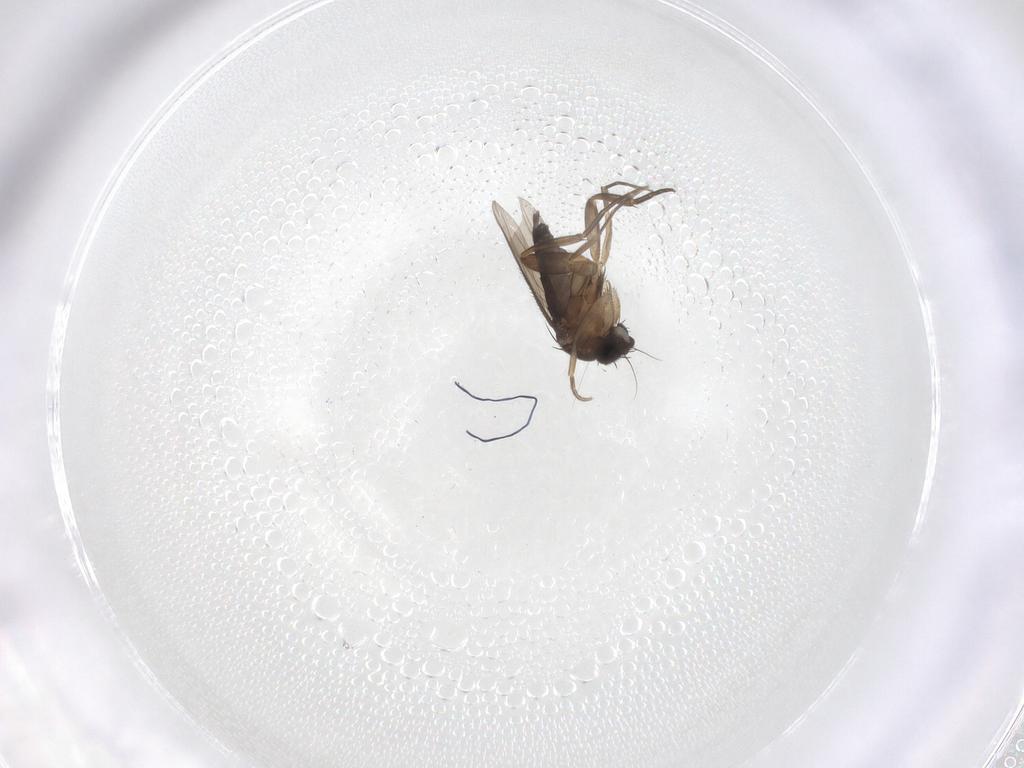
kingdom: Animalia
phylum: Arthropoda
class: Insecta
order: Diptera
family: Phoridae
